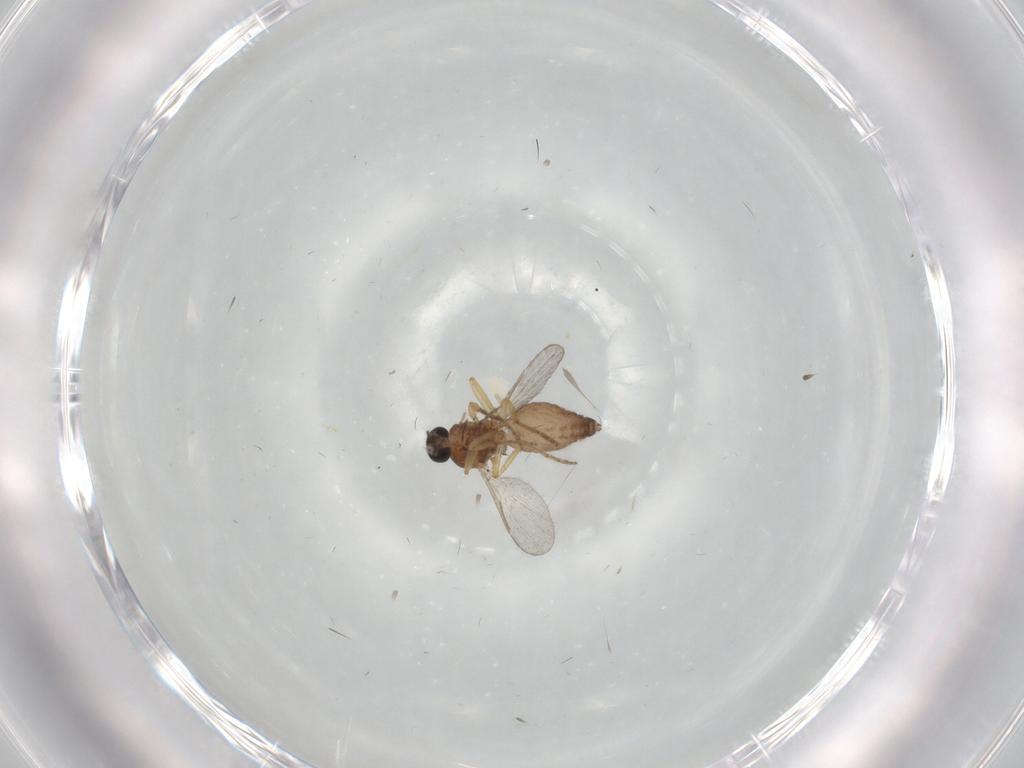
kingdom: Animalia
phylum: Arthropoda
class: Insecta
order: Diptera
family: Ceratopogonidae
